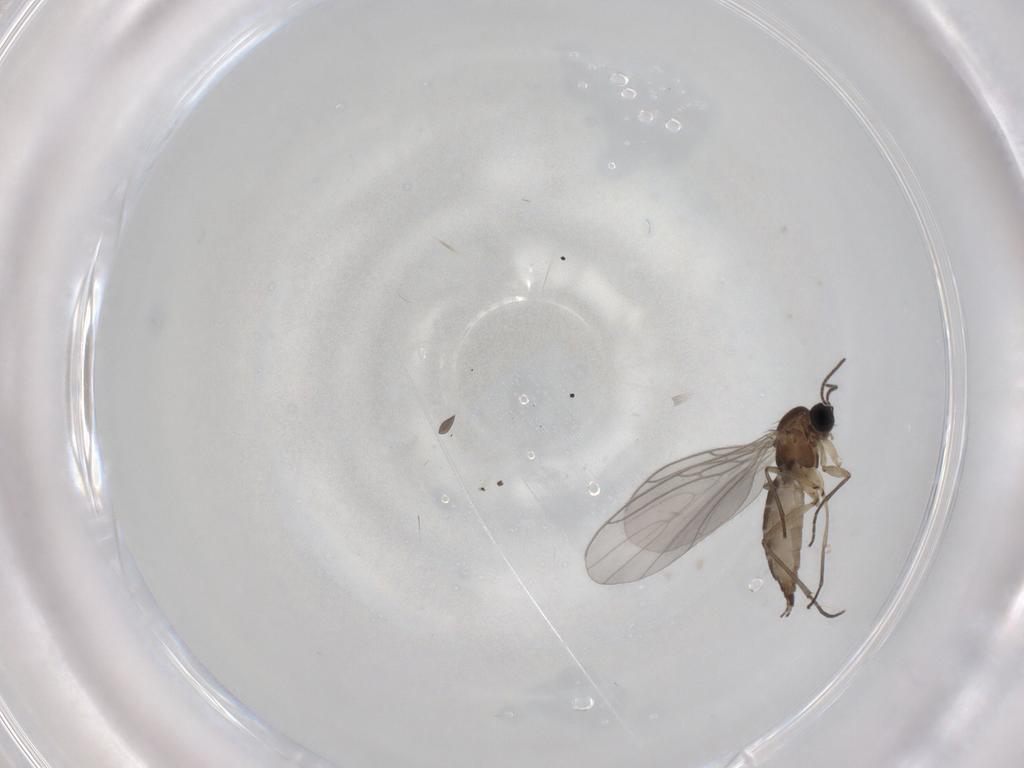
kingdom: Animalia
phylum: Arthropoda
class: Insecta
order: Diptera
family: Sciaridae
